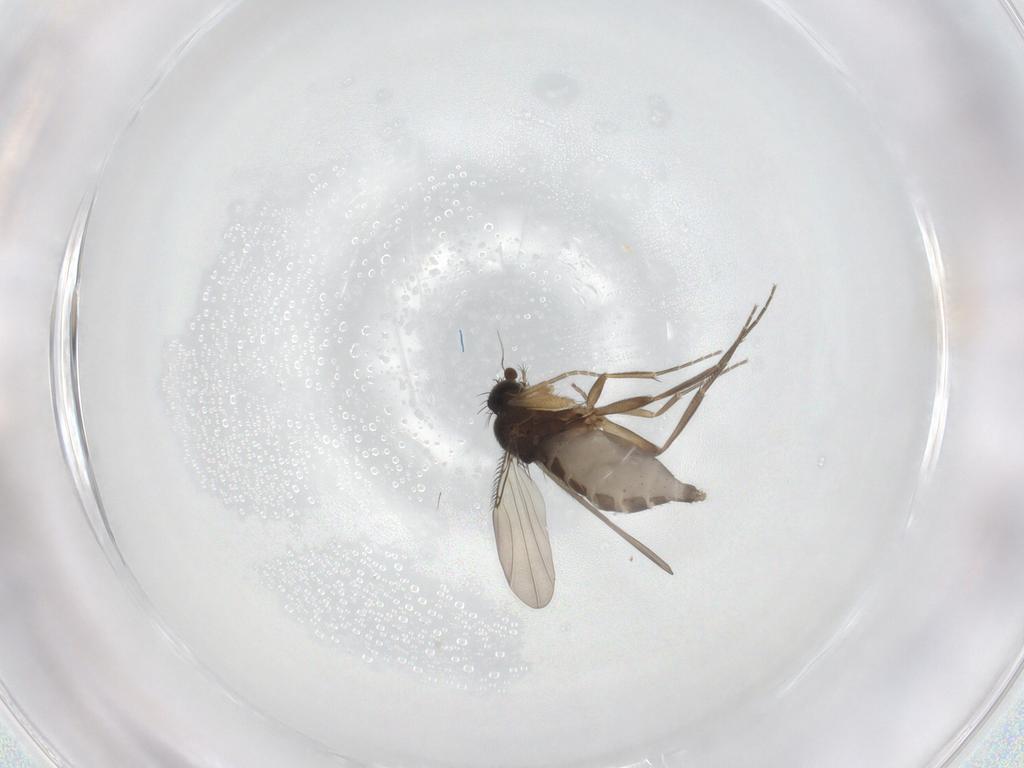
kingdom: Animalia
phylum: Arthropoda
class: Insecta
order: Diptera
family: Phoridae
